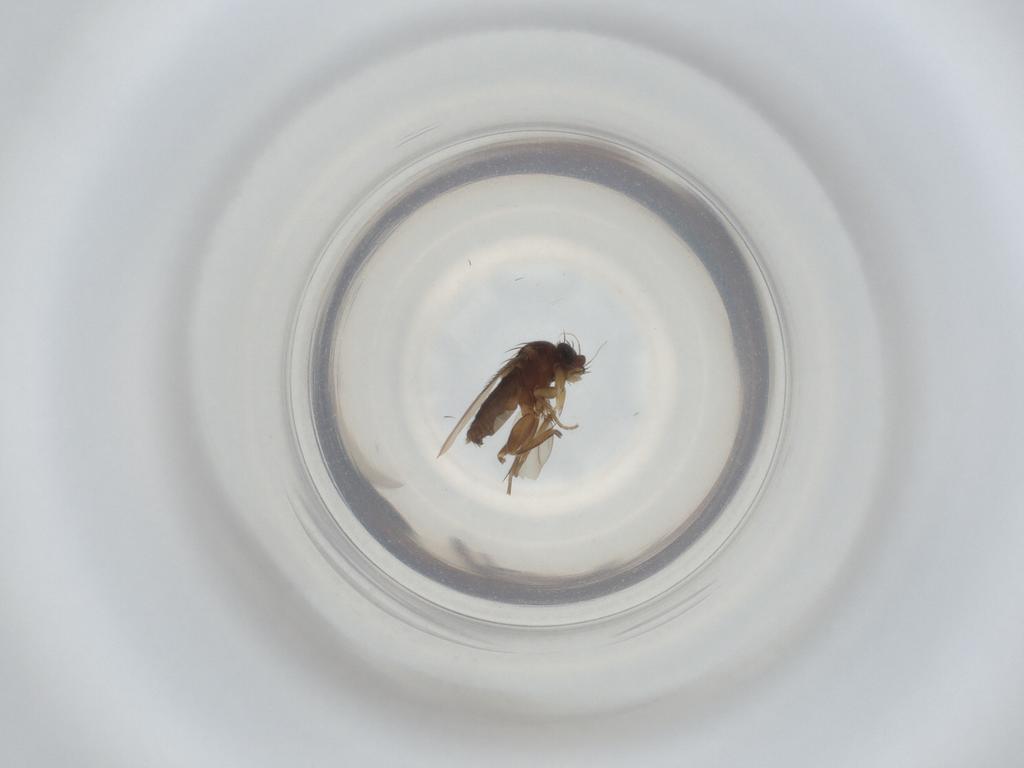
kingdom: Animalia
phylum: Arthropoda
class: Insecta
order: Diptera
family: Phoridae
